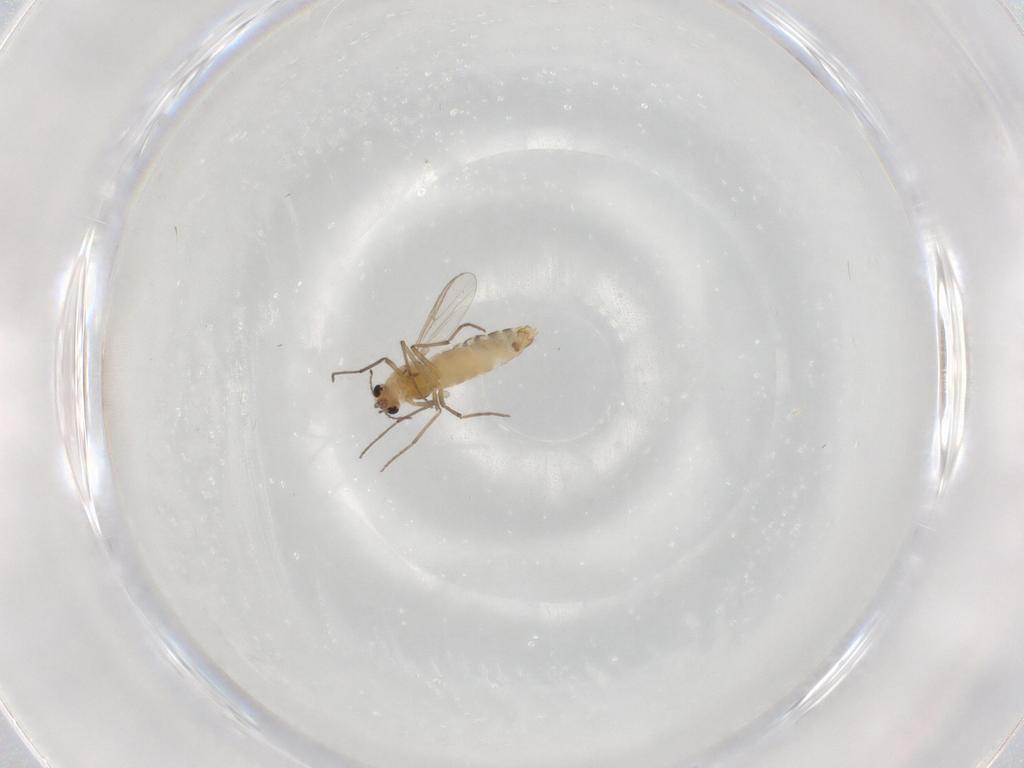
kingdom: Animalia
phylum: Arthropoda
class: Insecta
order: Diptera
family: Chironomidae
